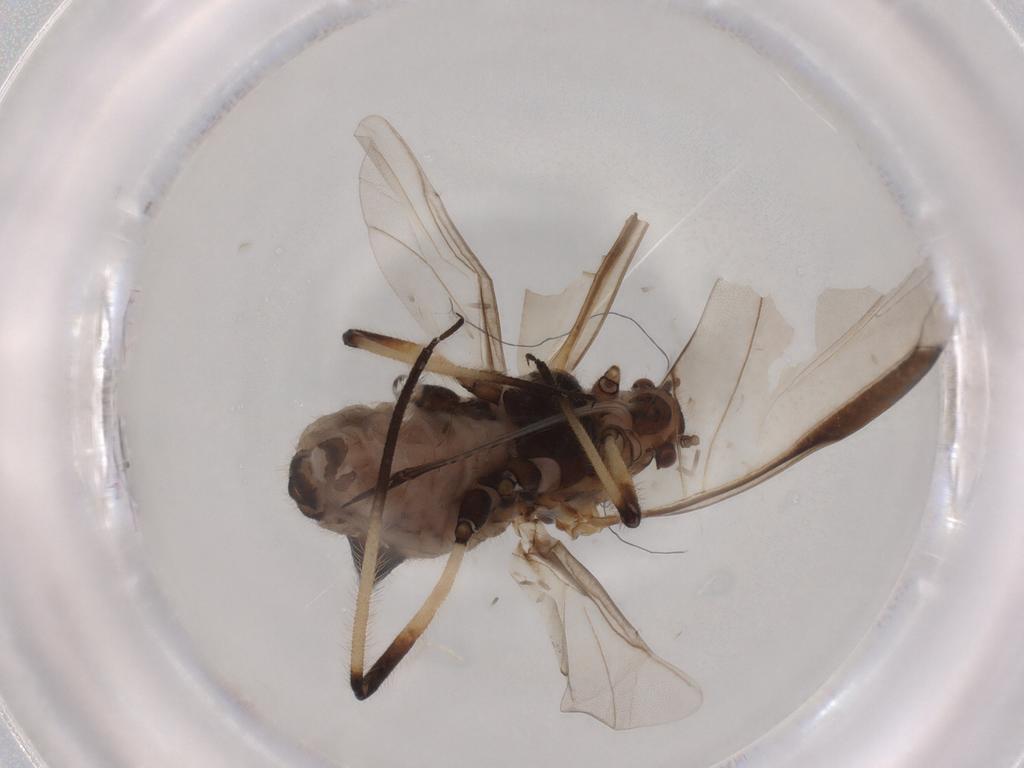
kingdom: Animalia
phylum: Arthropoda
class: Insecta
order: Hemiptera
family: Aphididae
